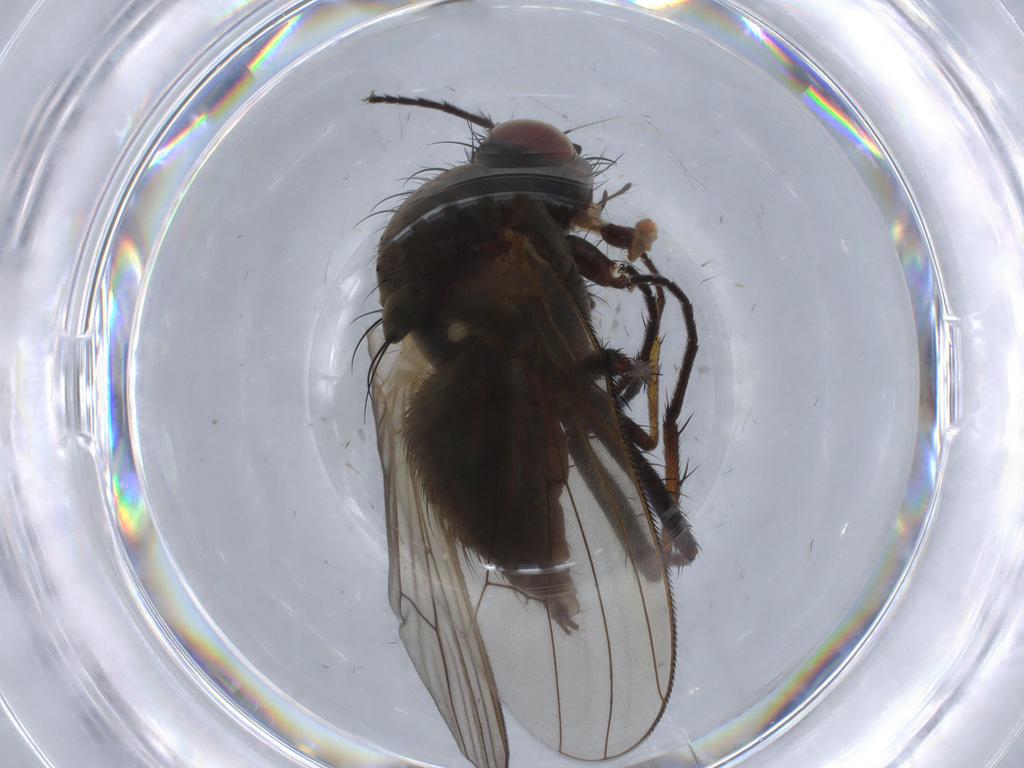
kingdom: Animalia
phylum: Arthropoda
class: Insecta
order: Diptera
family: Anthomyiidae
